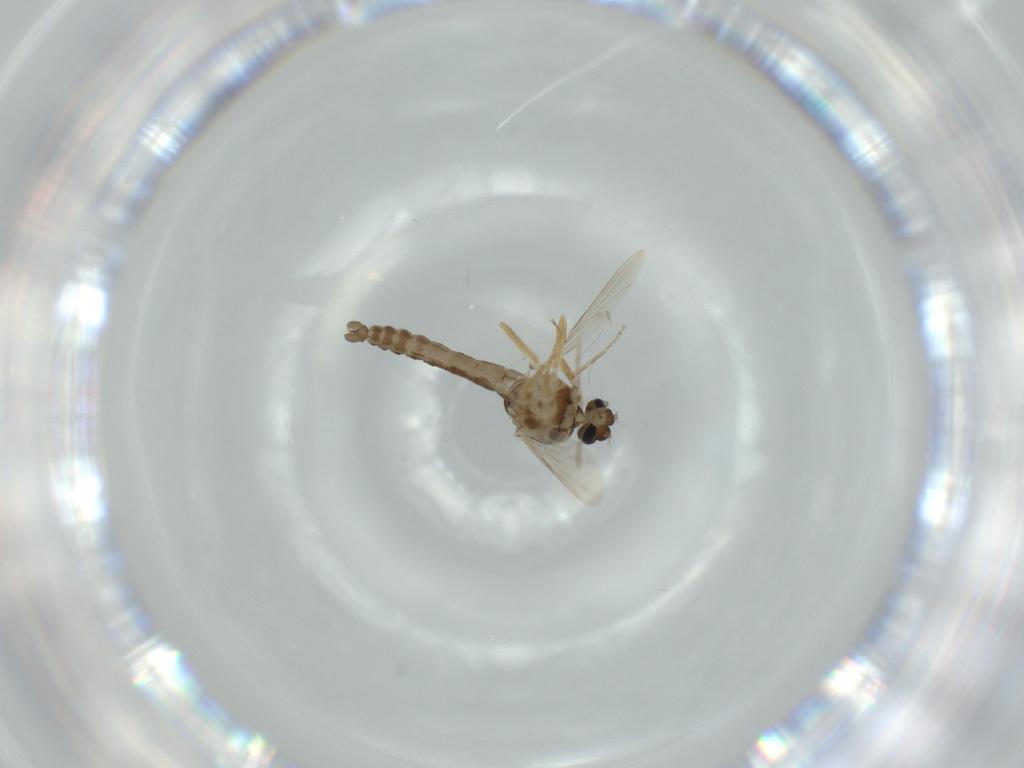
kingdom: Animalia
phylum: Arthropoda
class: Insecta
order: Diptera
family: Ceratopogonidae
